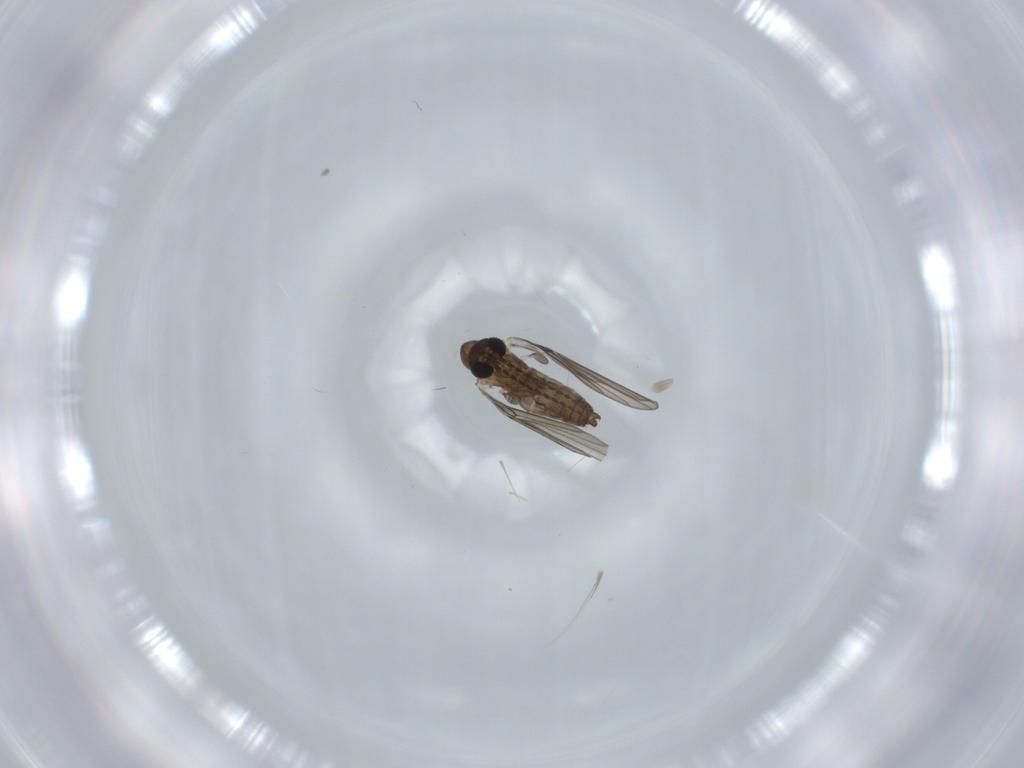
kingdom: Animalia
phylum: Arthropoda
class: Insecta
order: Diptera
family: Psychodidae
